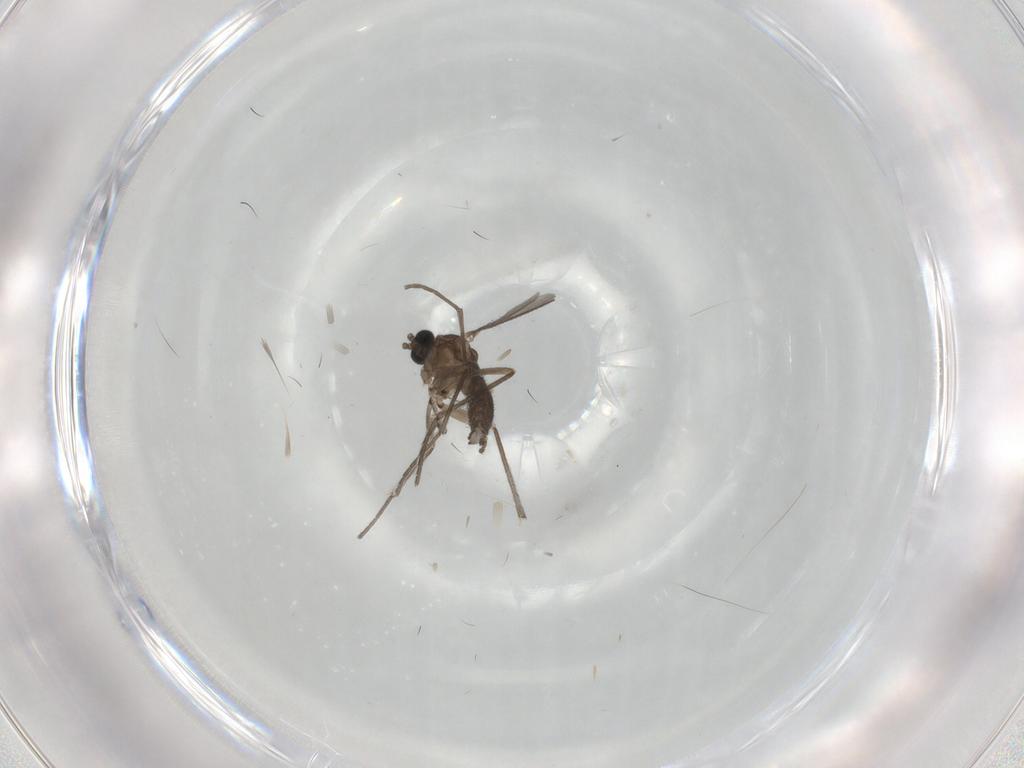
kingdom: Animalia
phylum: Arthropoda
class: Insecta
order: Diptera
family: Sciaridae
